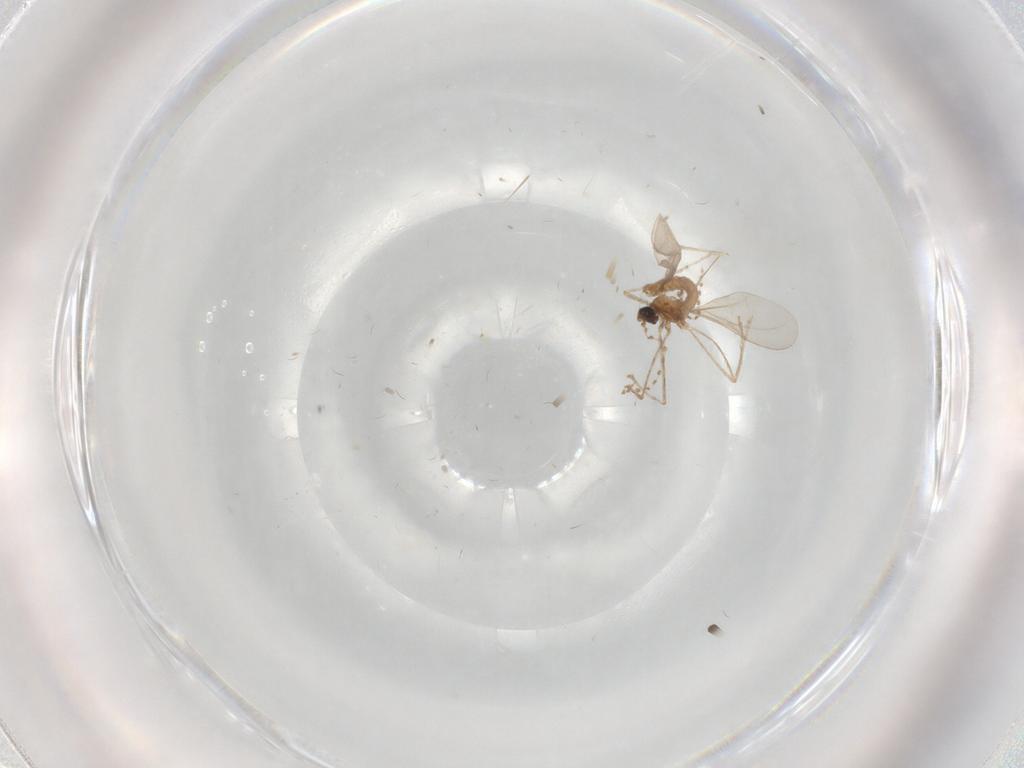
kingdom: Animalia
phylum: Arthropoda
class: Insecta
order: Diptera
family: Cecidomyiidae
